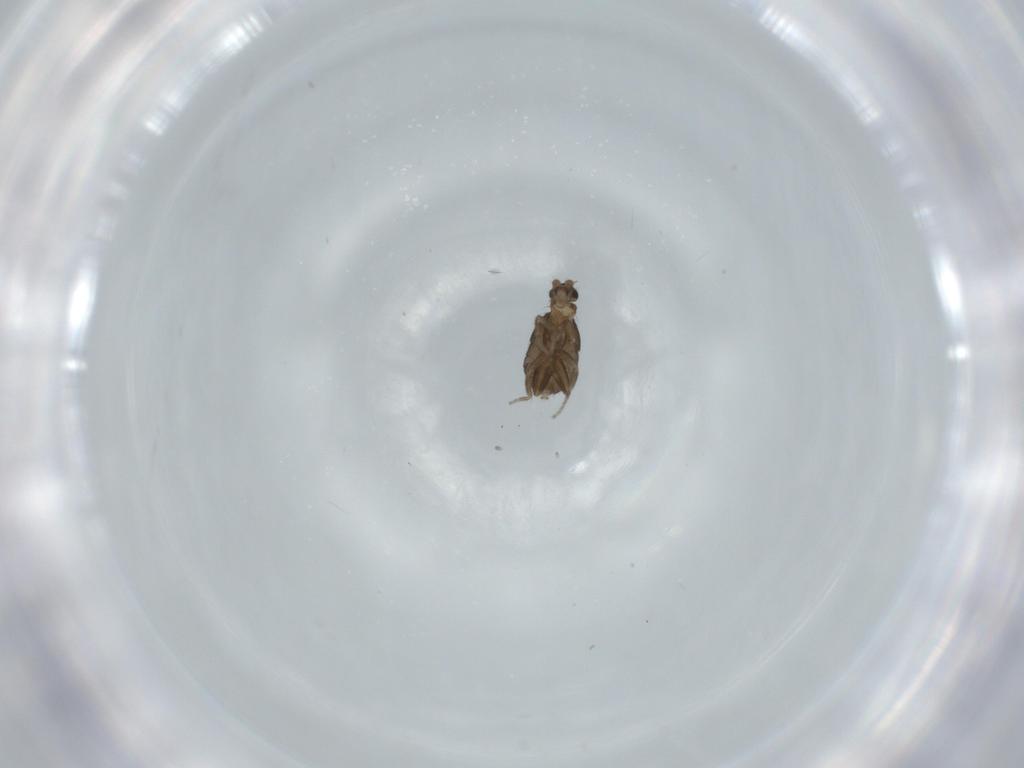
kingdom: Animalia
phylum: Arthropoda
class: Insecta
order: Diptera
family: Phoridae
